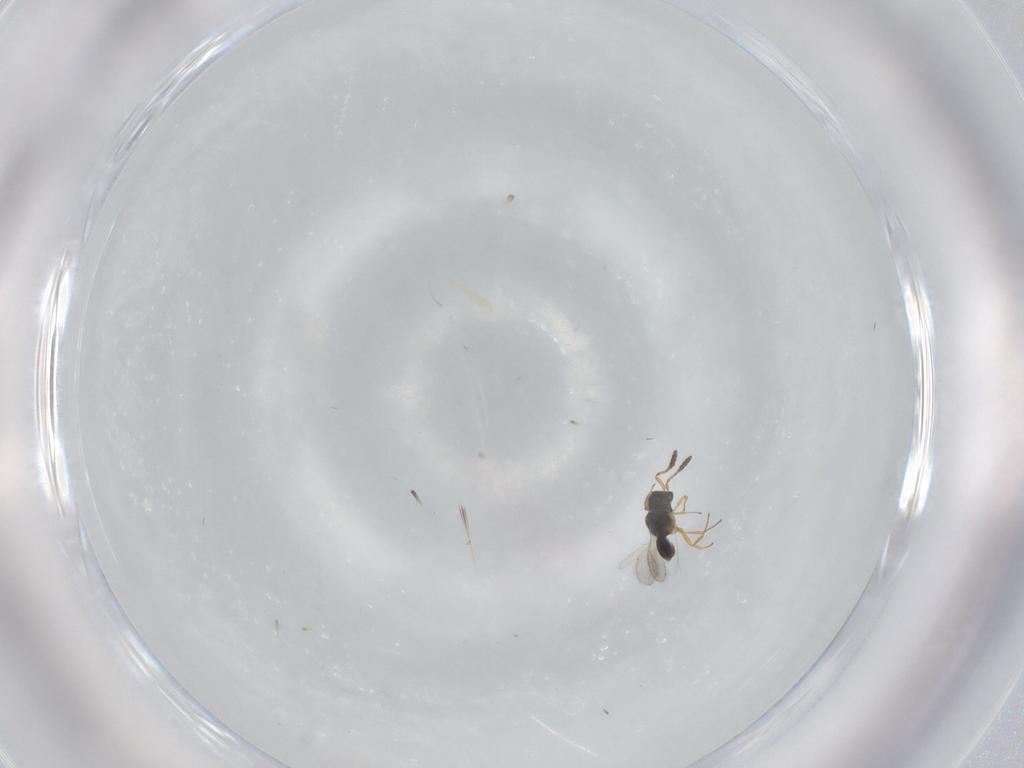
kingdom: Animalia
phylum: Arthropoda
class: Insecta
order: Hymenoptera
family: Scelionidae
